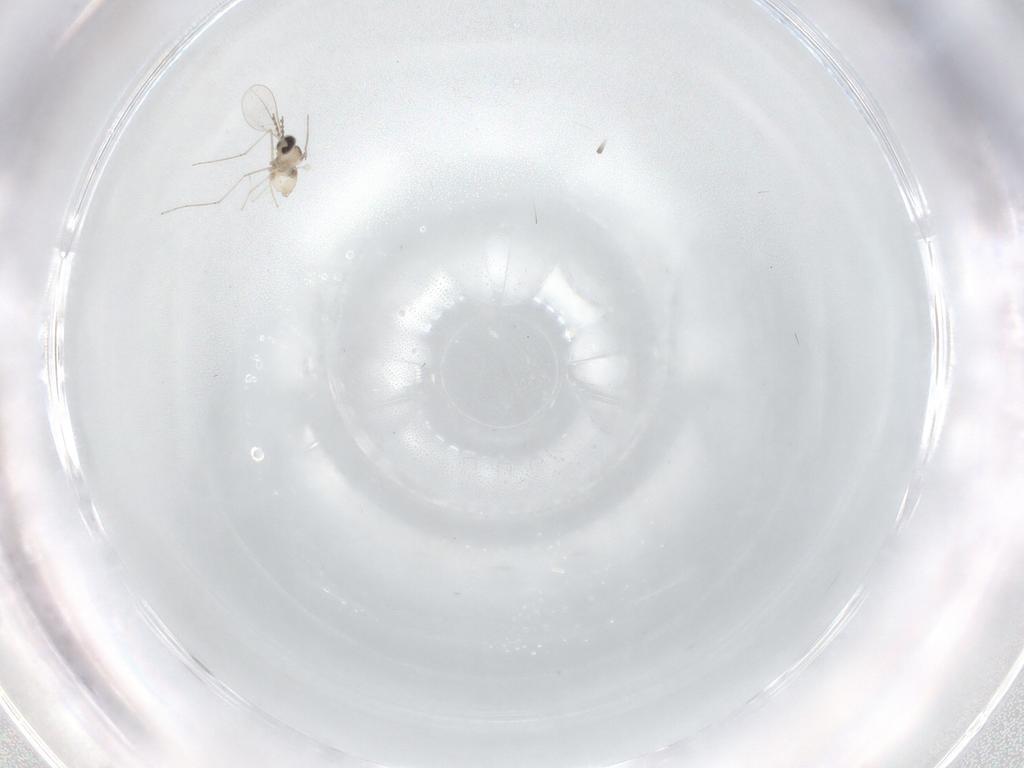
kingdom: Animalia
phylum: Arthropoda
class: Insecta
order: Diptera
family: Cecidomyiidae
